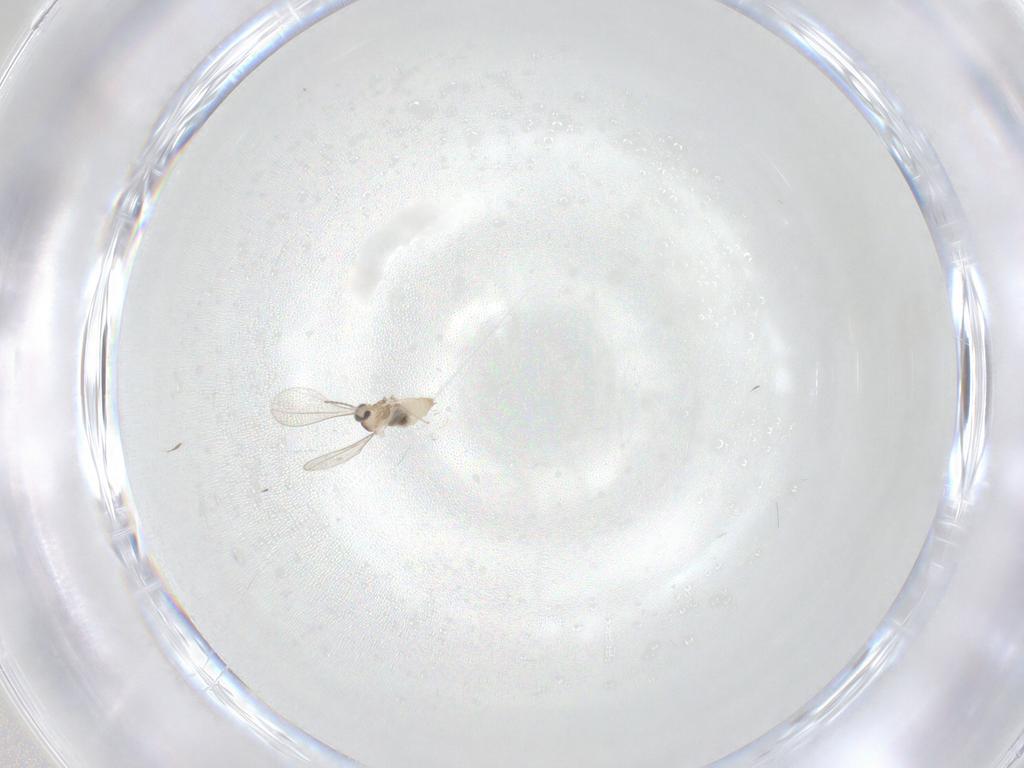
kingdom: Animalia
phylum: Arthropoda
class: Insecta
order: Diptera
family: Cecidomyiidae
